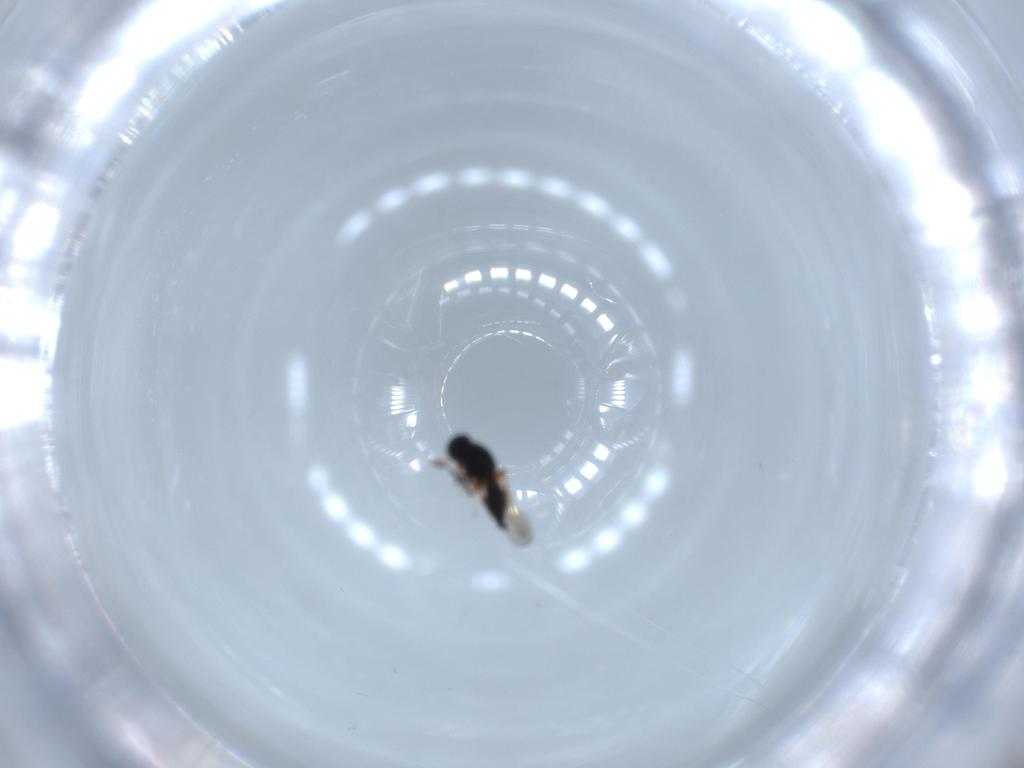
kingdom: Animalia
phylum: Arthropoda
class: Insecta
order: Hymenoptera
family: Platygastridae
